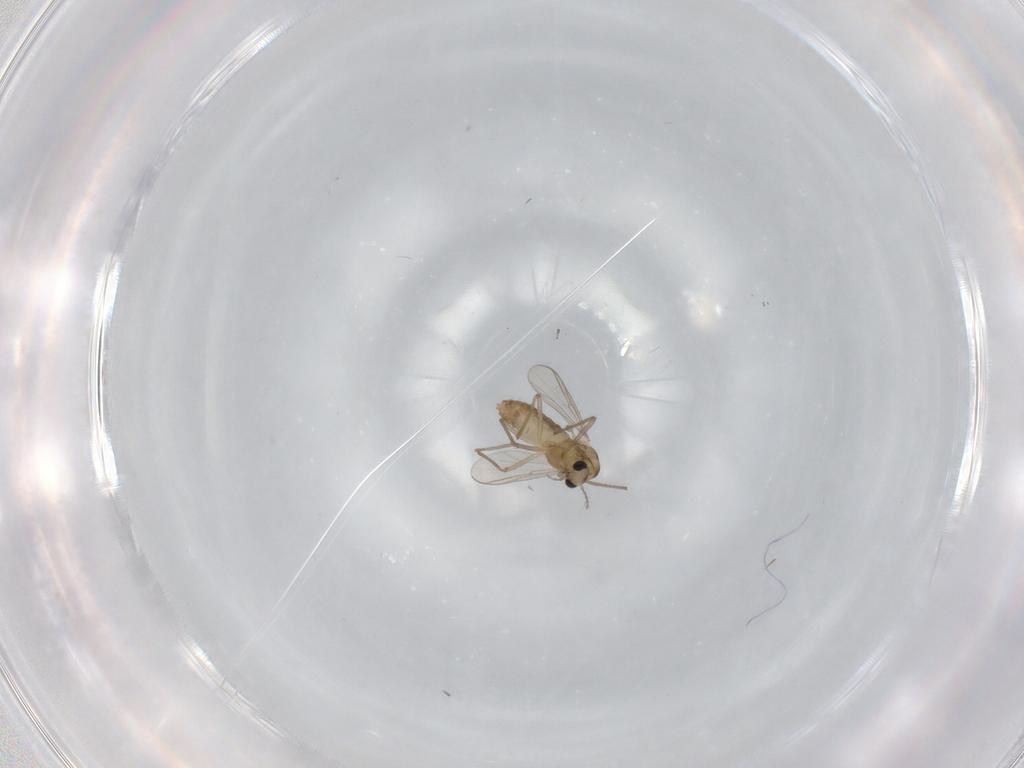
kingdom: Animalia
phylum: Arthropoda
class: Insecta
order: Diptera
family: Chironomidae
